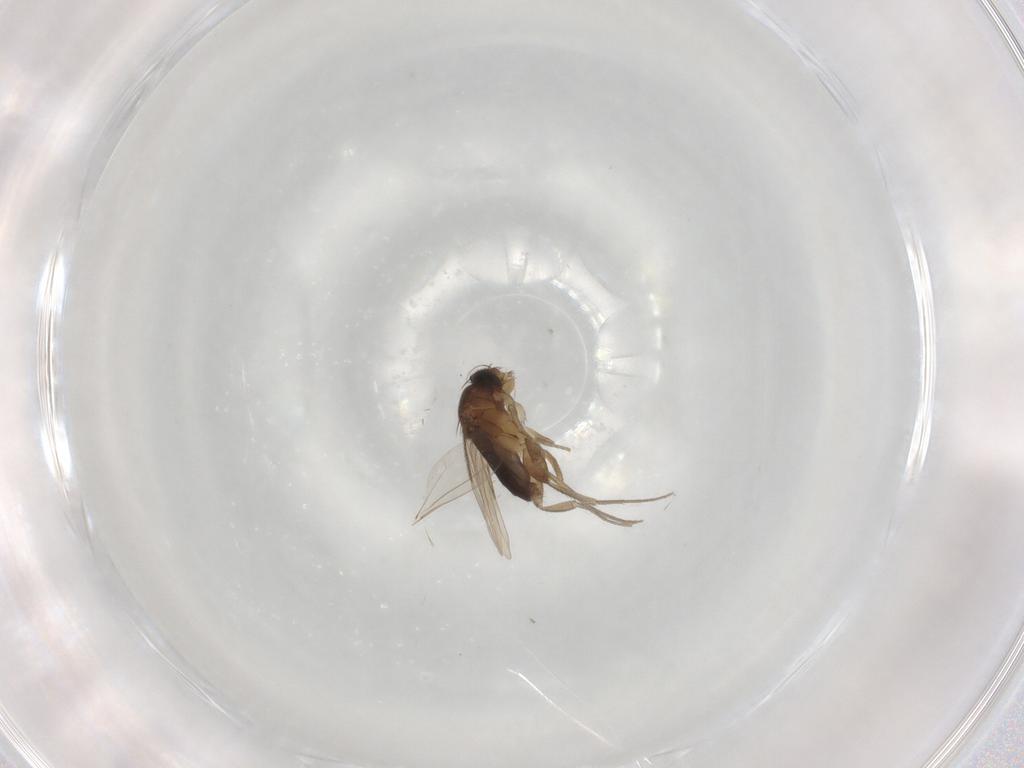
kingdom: Animalia
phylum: Arthropoda
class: Insecta
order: Diptera
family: Phoridae
